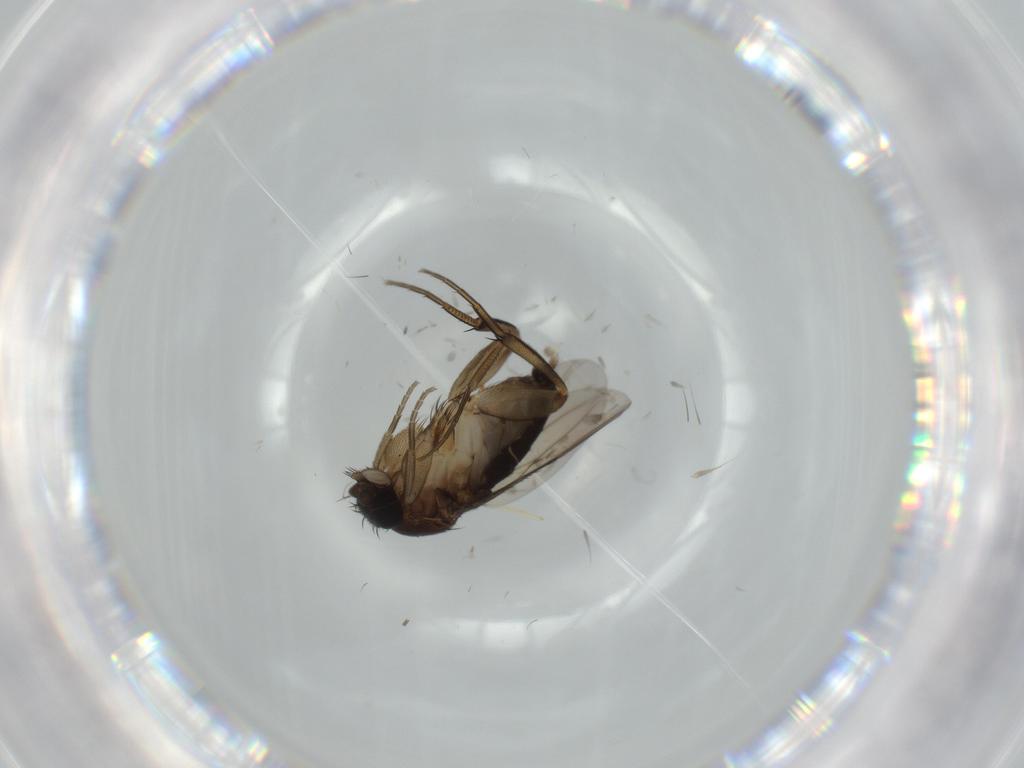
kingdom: Animalia
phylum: Arthropoda
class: Insecta
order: Diptera
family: Phoridae
